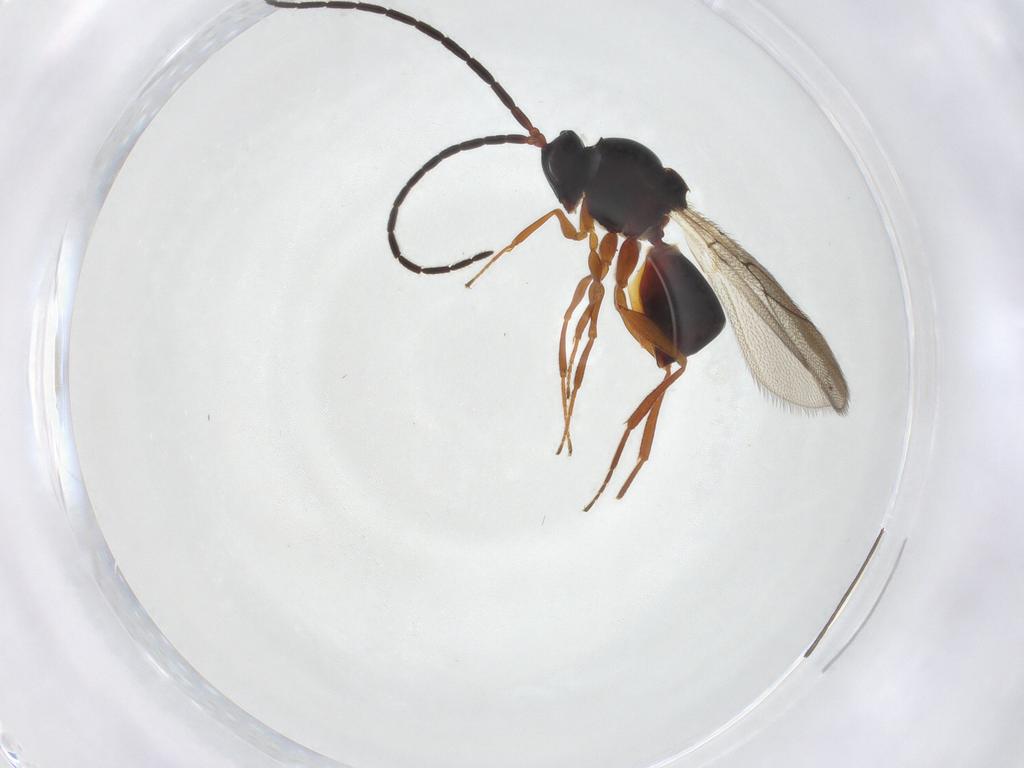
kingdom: Animalia
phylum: Arthropoda
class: Insecta
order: Hymenoptera
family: Figitidae
